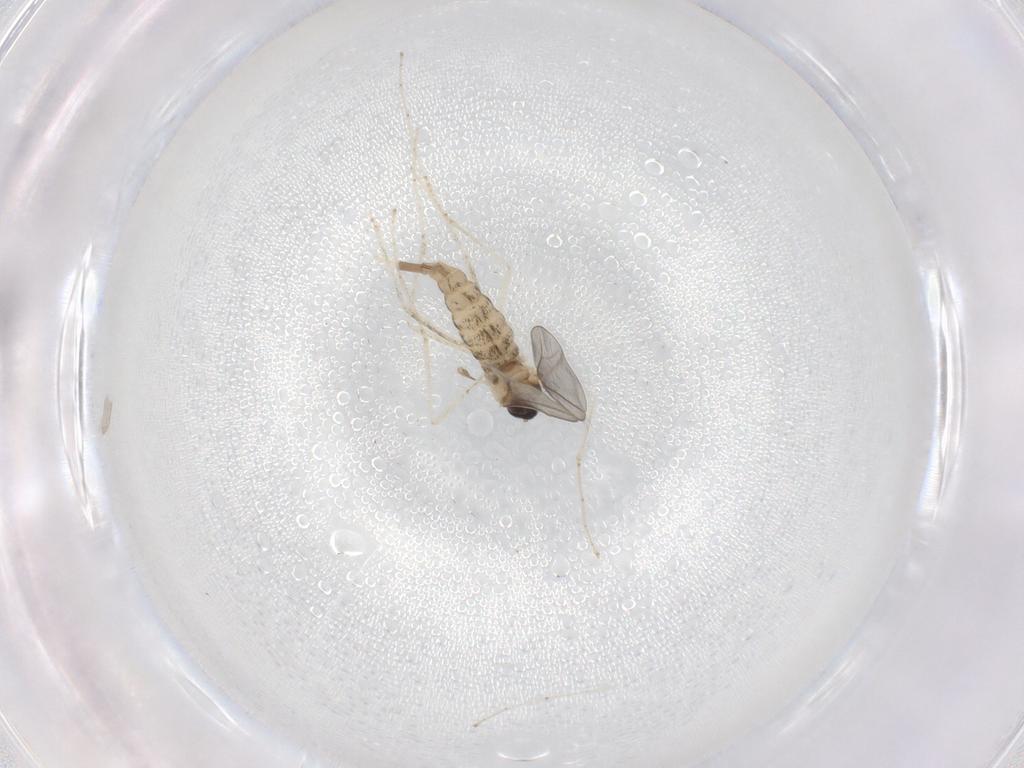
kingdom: Animalia
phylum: Arthropoda
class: Insecta
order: Diptera
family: Cecidomyiidae
